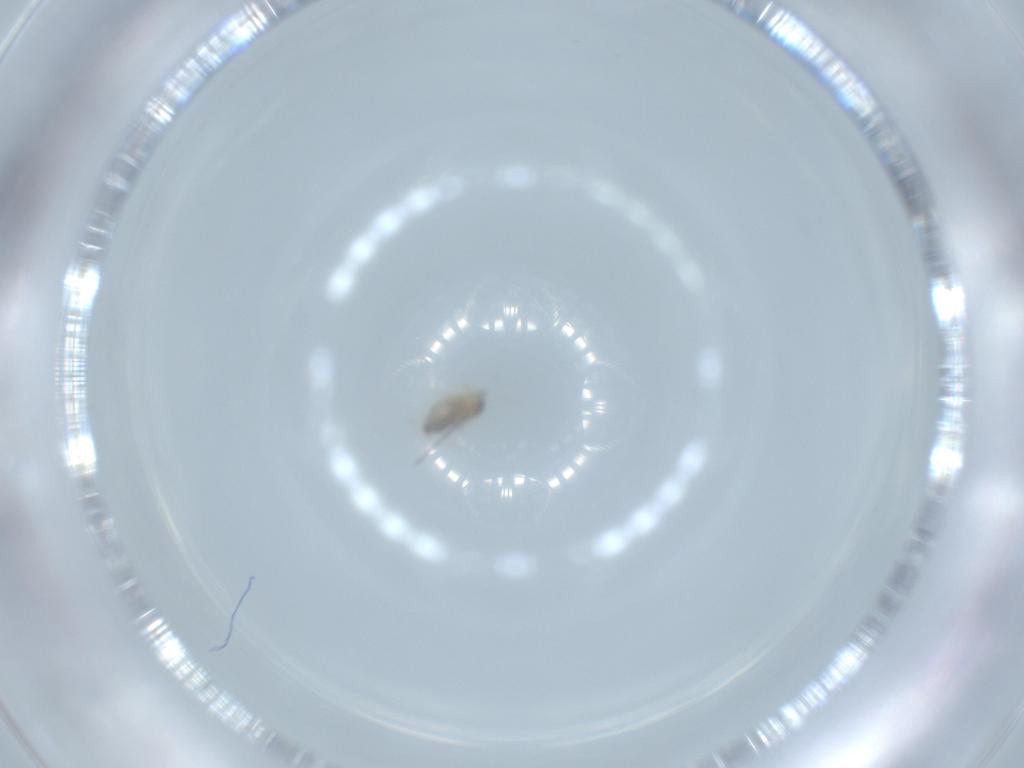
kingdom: Animalia
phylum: Arthropoda
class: Insecta
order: Diptera
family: Cecidomyiidae
